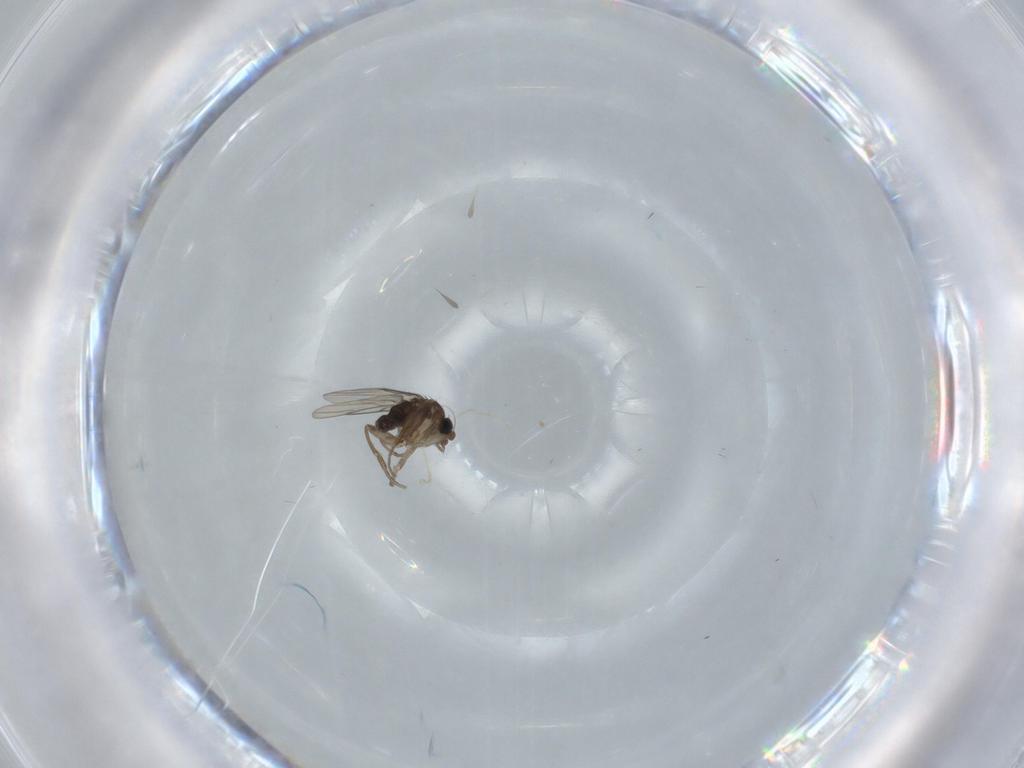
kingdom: Animalia
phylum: Arthropoda
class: Insecta
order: Diptera
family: Phoridae
